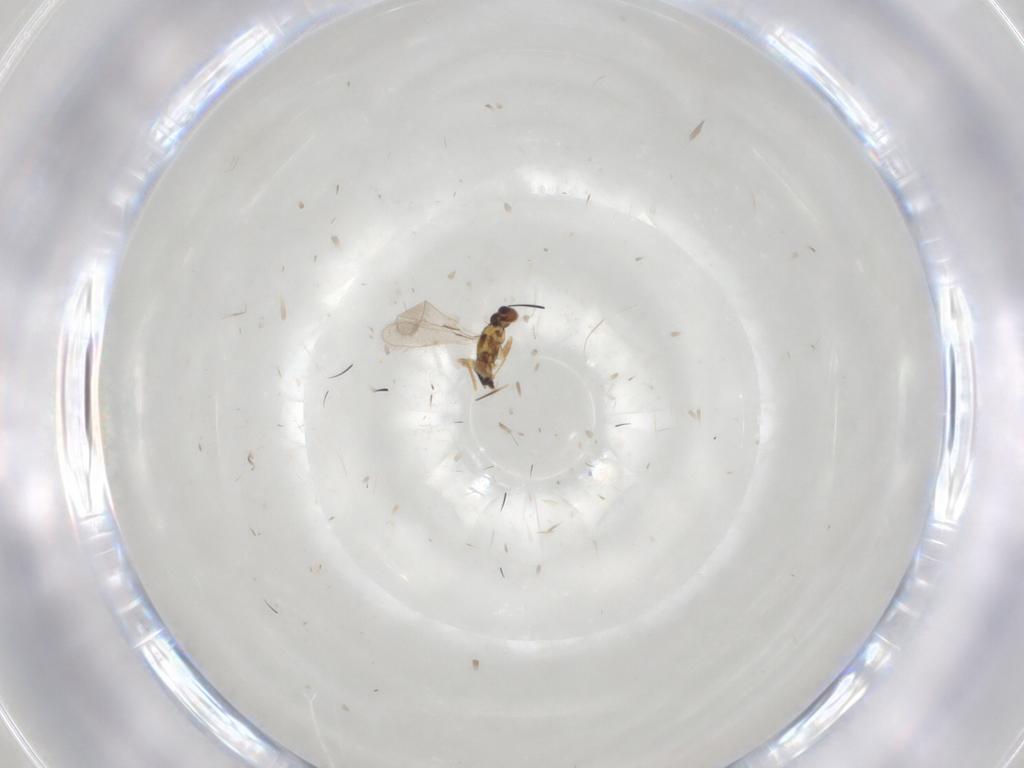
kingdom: Animalia
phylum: Arthropoda
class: Insecta
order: Hymenoptera
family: Mymaridae
